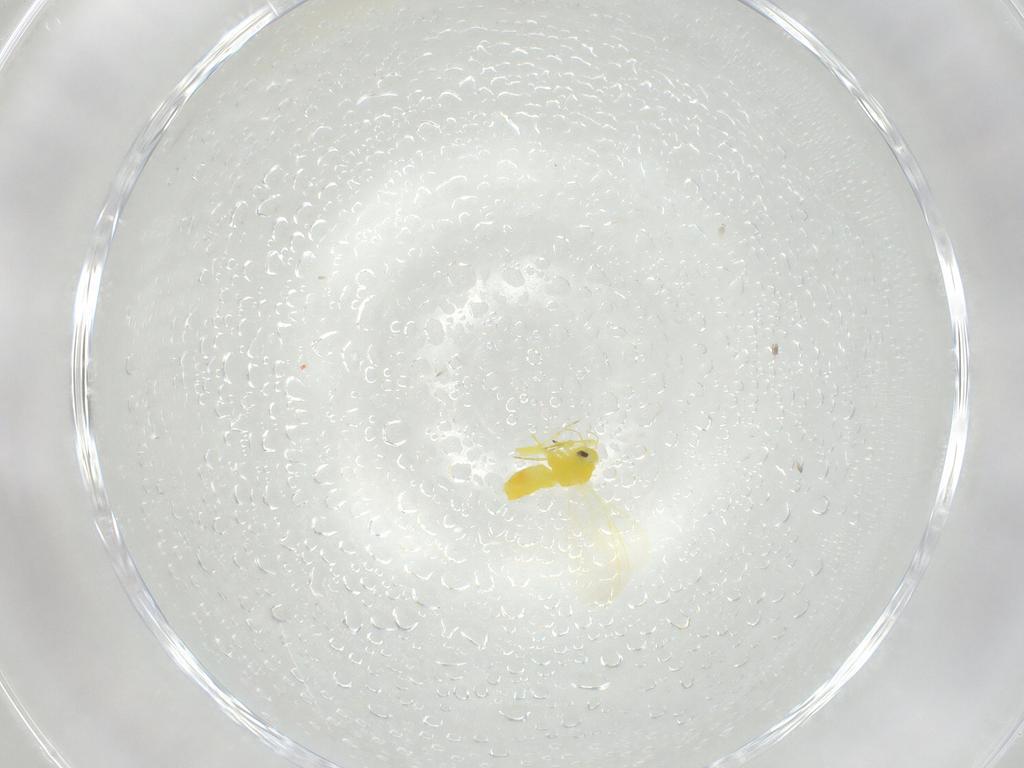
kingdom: Animalia
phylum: Arthropoda
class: Insecta
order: Hemiptera
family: Aleyrodidae
